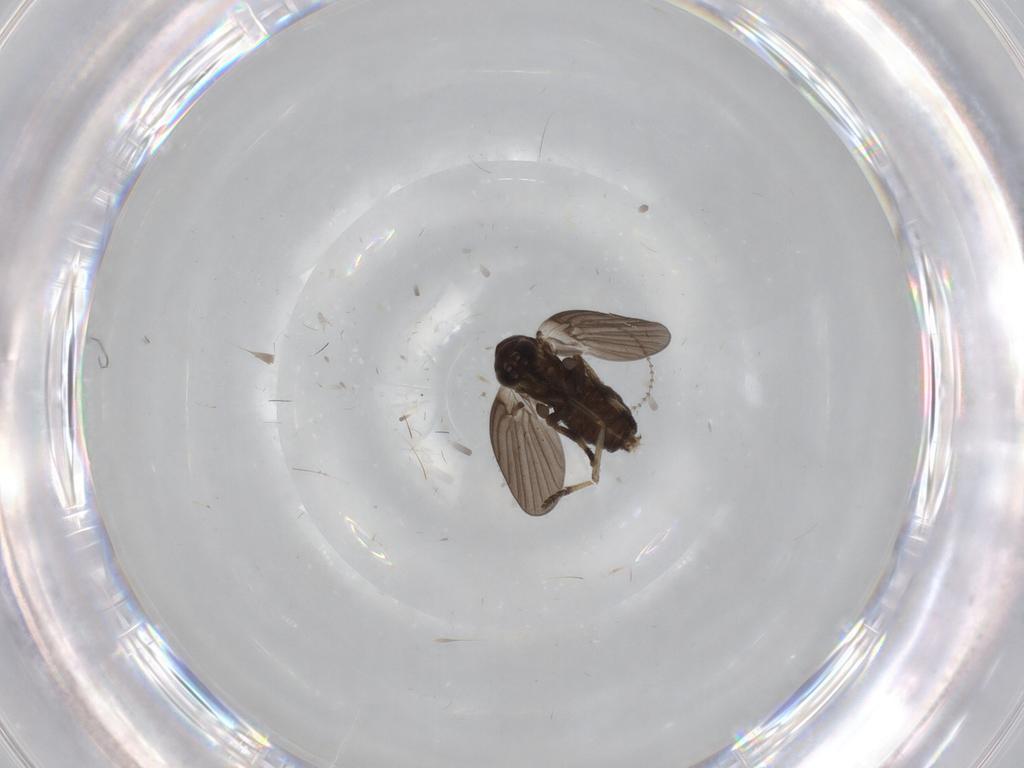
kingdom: Animalia
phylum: Arthropoda
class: Insecta
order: Diptera
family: Psychodidae
